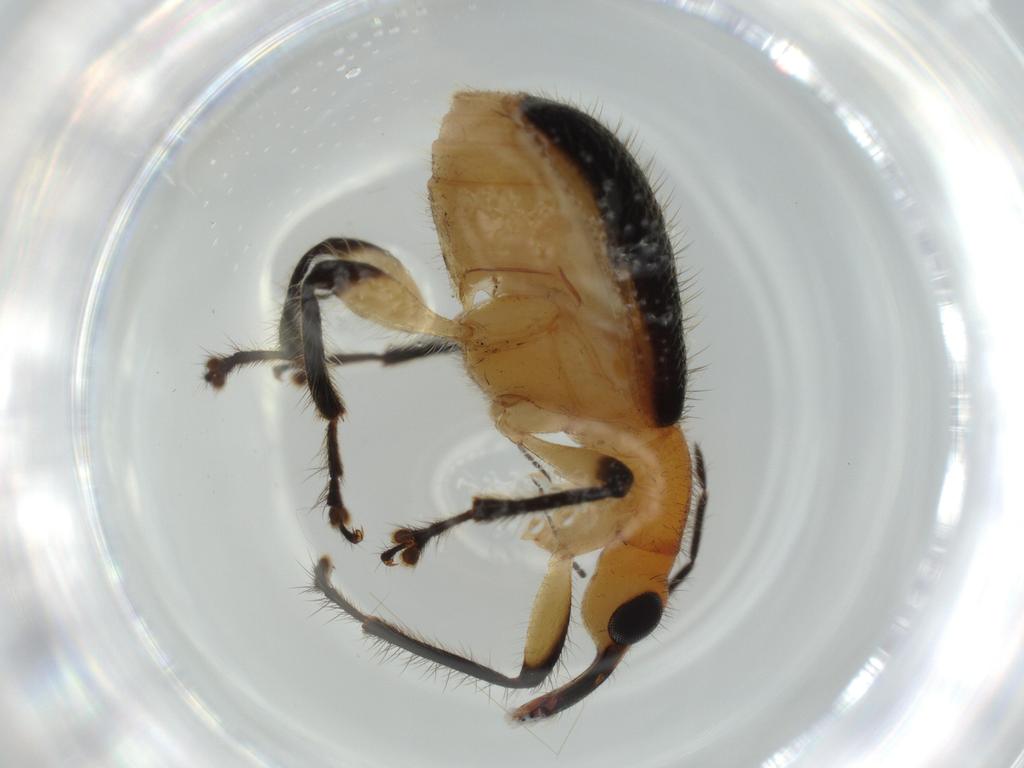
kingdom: Animalia
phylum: Arthropoda
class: Insecta
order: Coleoptera
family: Attelabidae
